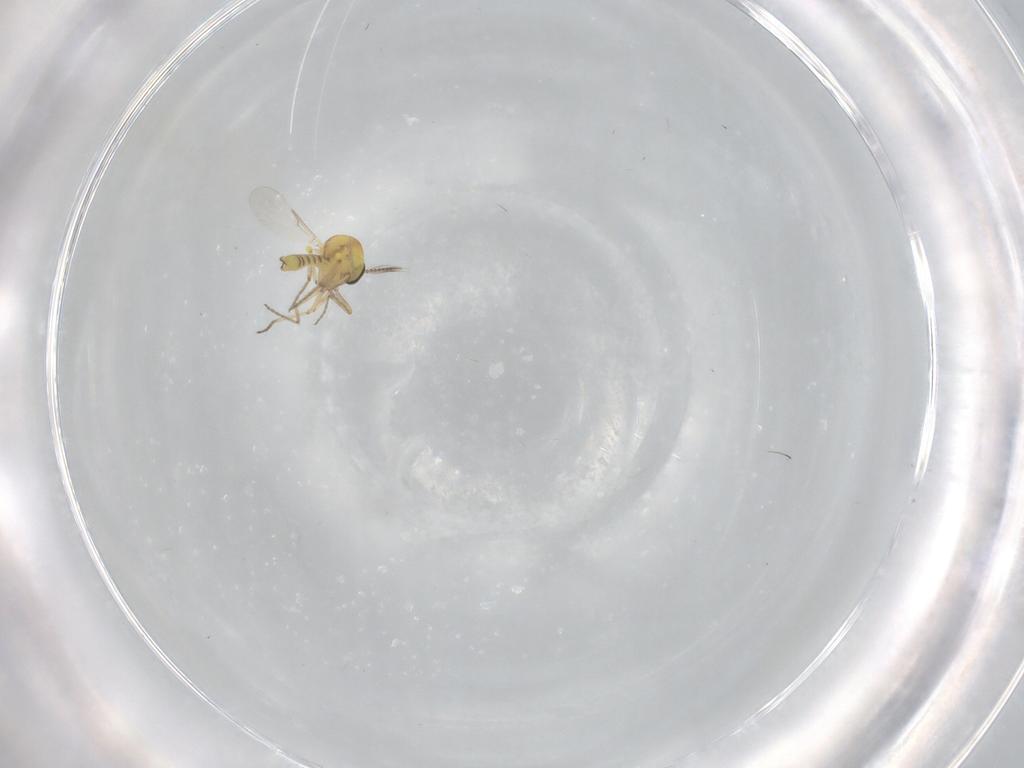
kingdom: Animalia
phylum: Arthropoda
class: Insecta
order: Diptera
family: Ceratopogonidae
